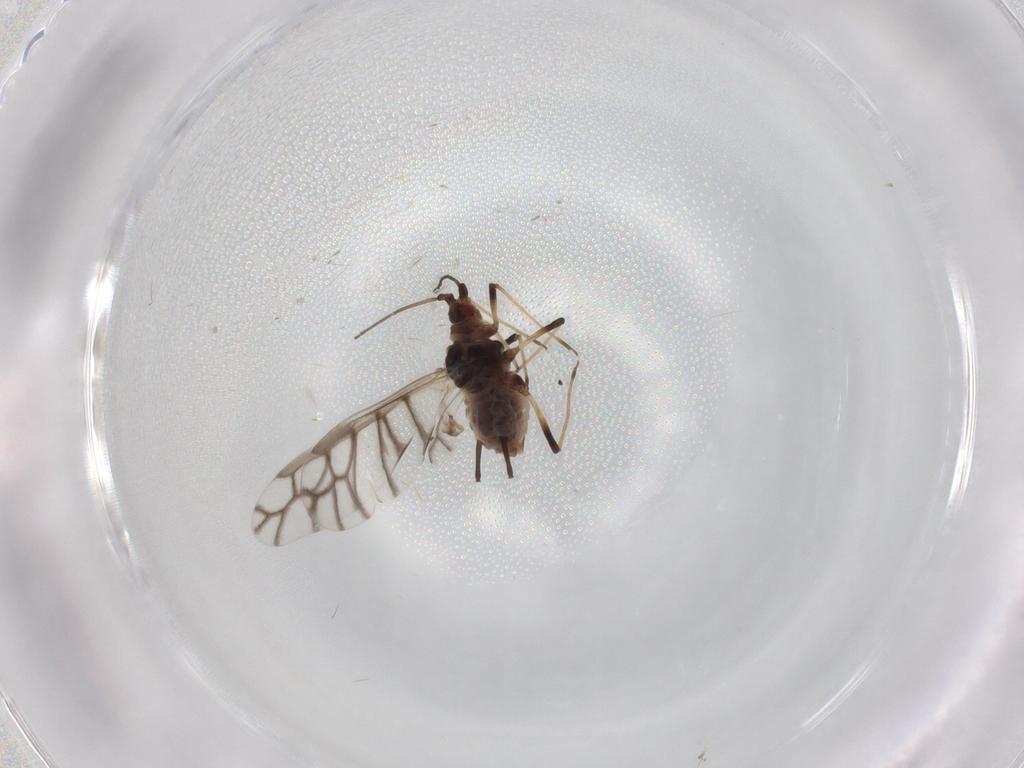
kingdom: Animalia
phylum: Arthropoda
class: Insecta
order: Hemiptera
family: Aphididae
